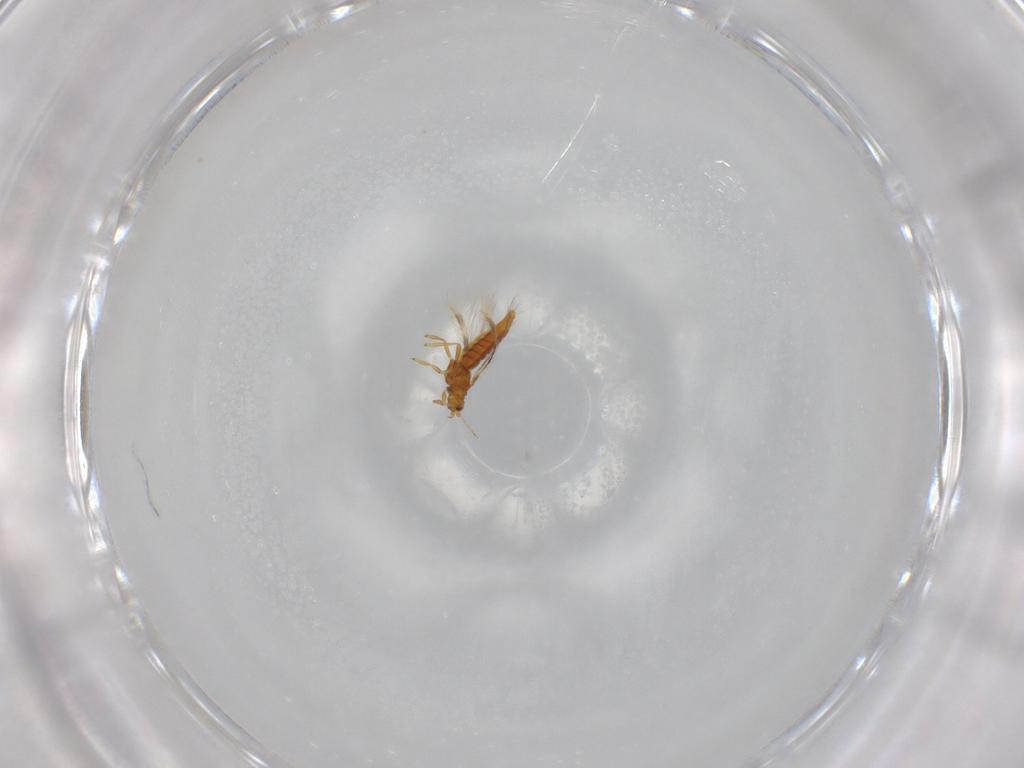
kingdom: Animalia
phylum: Arthropoda
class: Insecta
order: Thysanoptera
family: Thripidae
